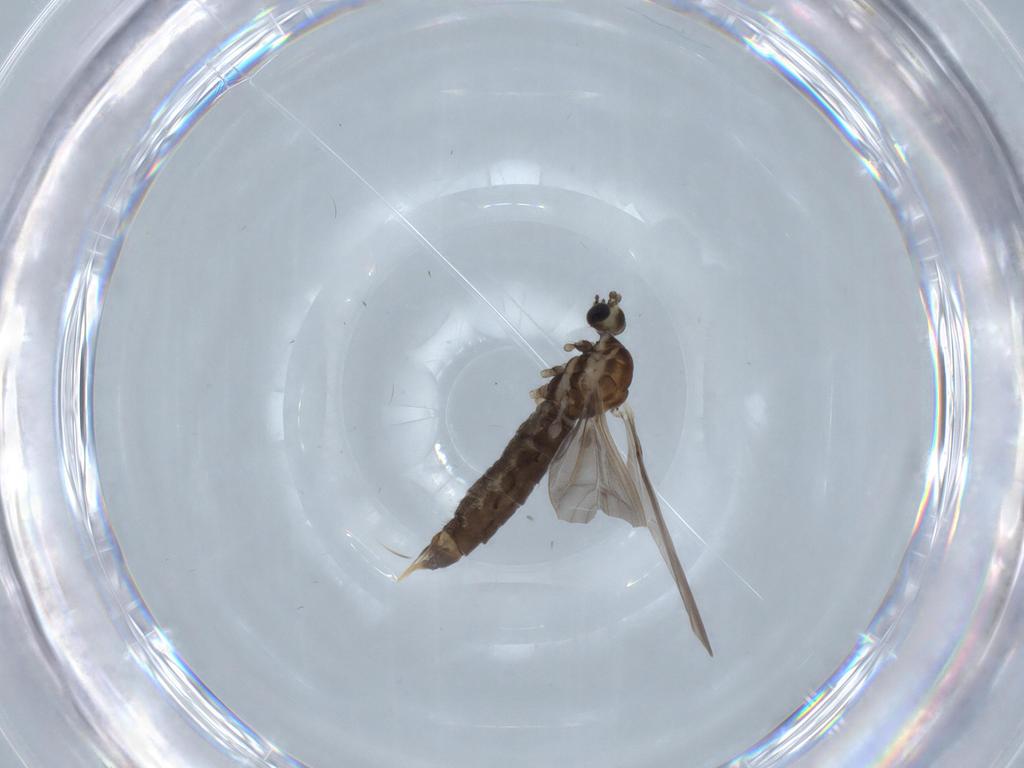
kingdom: Animalia
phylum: Arthropoda
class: Insecta
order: Diptera
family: Limoniidae
